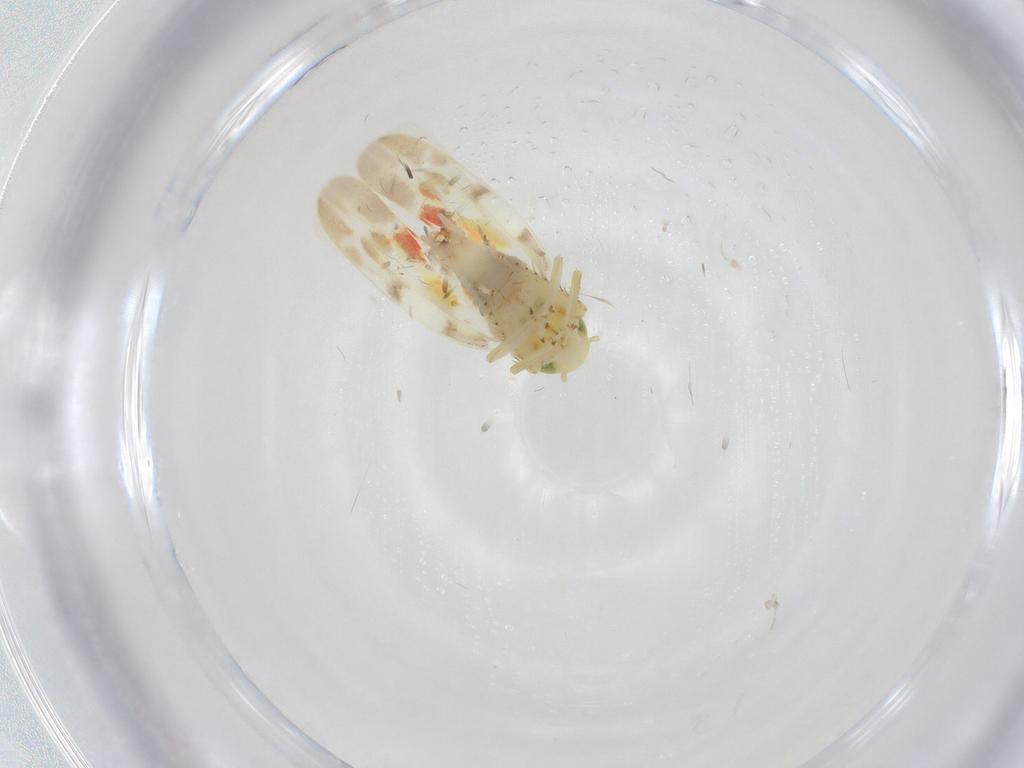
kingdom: Animalia
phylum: Arthropoda
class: Insecta
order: Hemiptera
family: Cicadellidae
